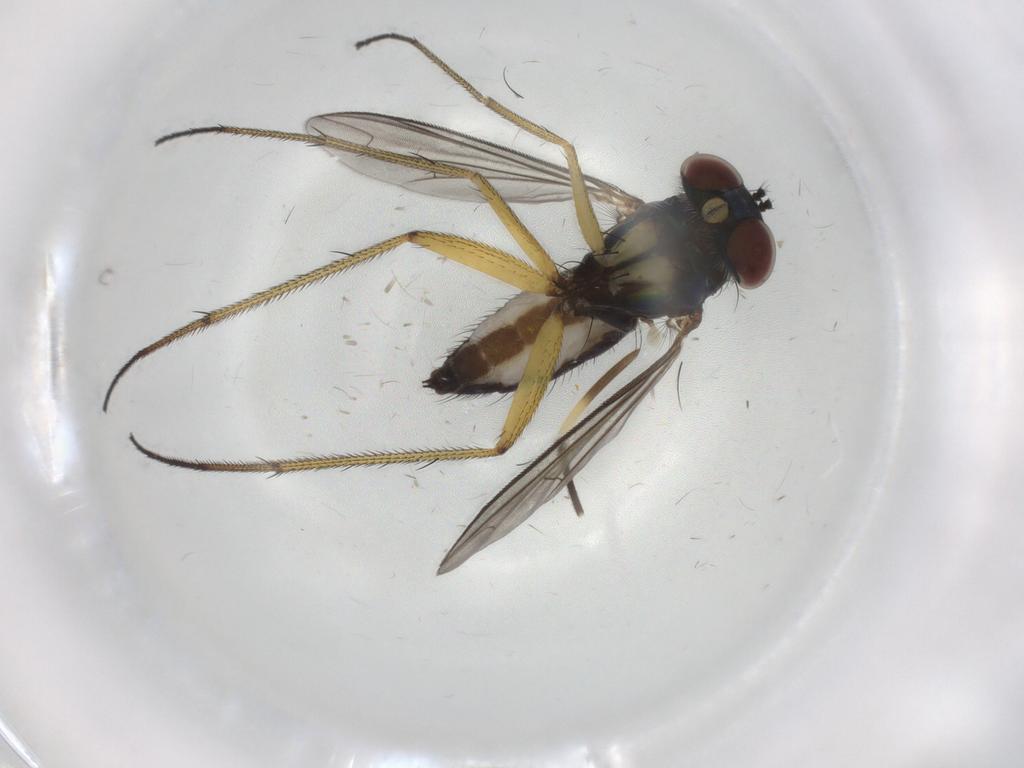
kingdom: Animalia
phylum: Arthropoda
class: Insecta
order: Diptera
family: Dolichopodidae
